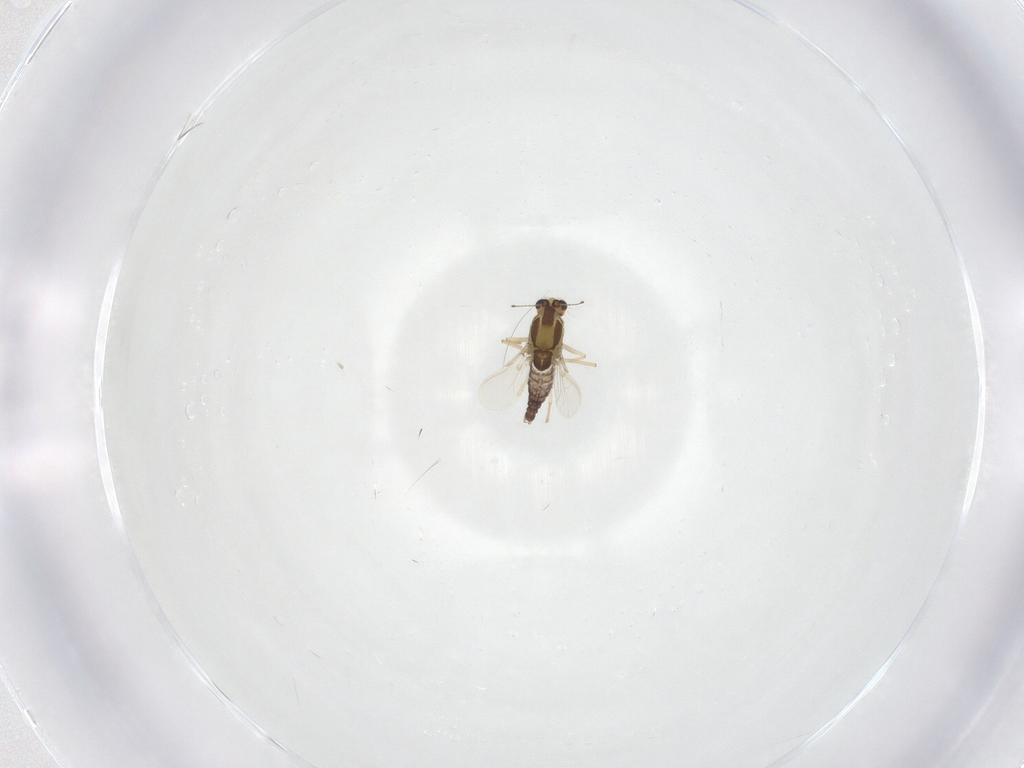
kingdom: Animalia
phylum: Arthropoda
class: Insecta
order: Diptera
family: Chironomidae
